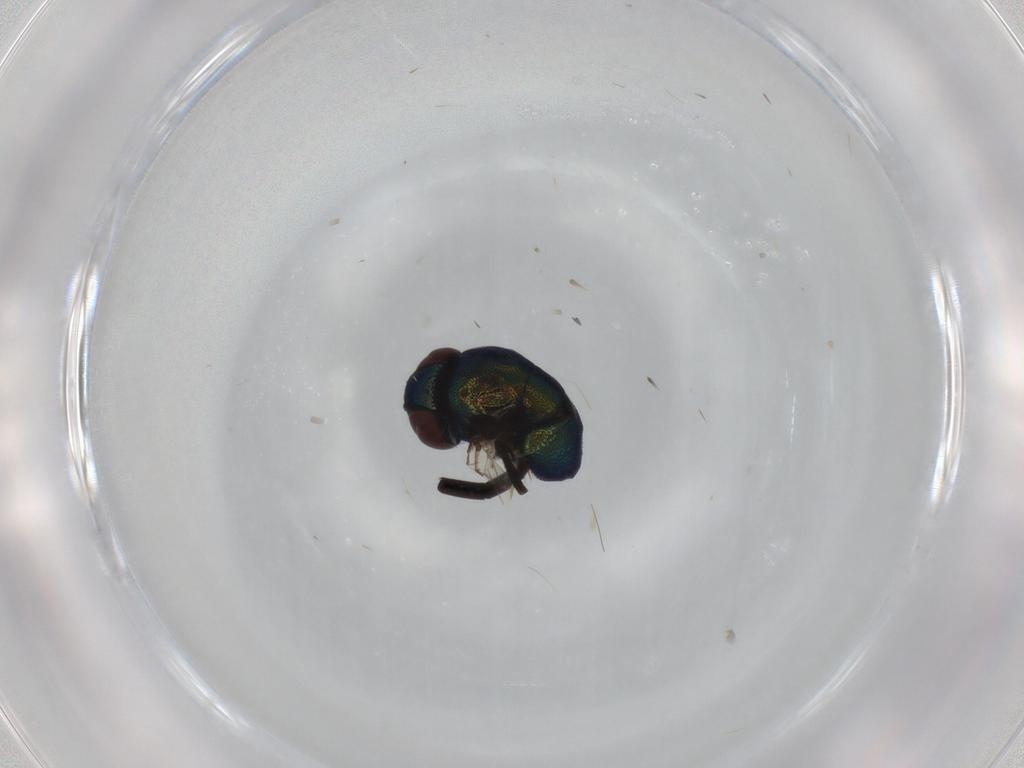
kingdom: Animalia
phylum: Arthropoda
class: Insecta
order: Diptera
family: Cryptochetidae
